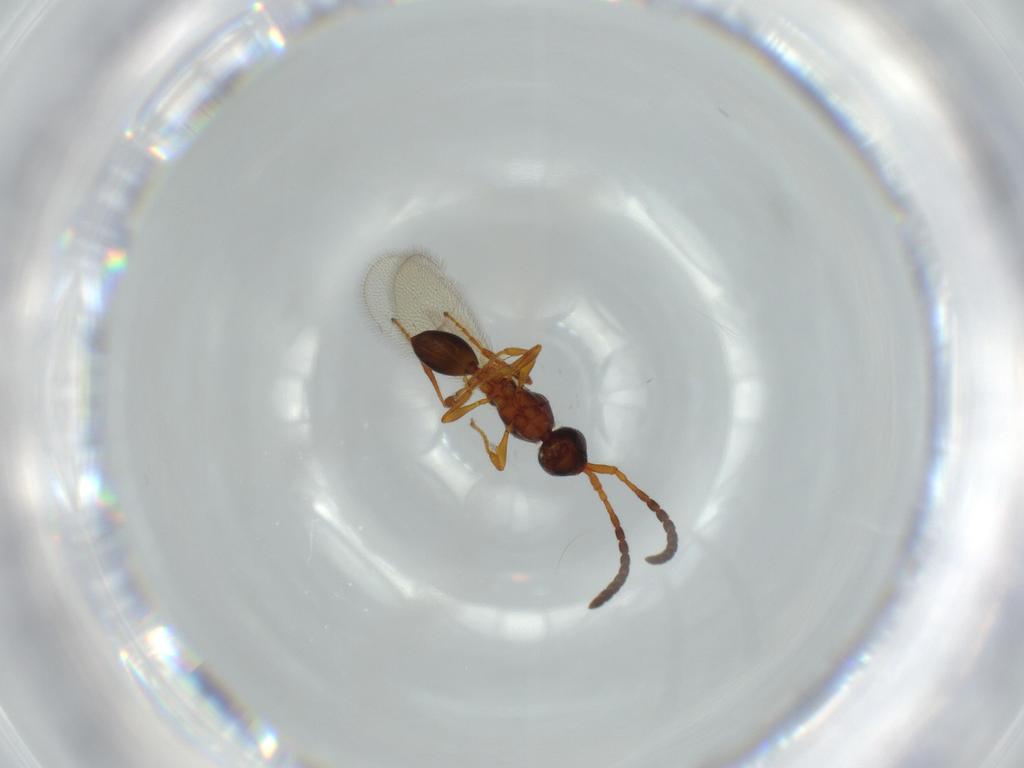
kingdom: Animalia
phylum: Arthropoda
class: Insecta
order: Hymenoptera
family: Diapriidae
